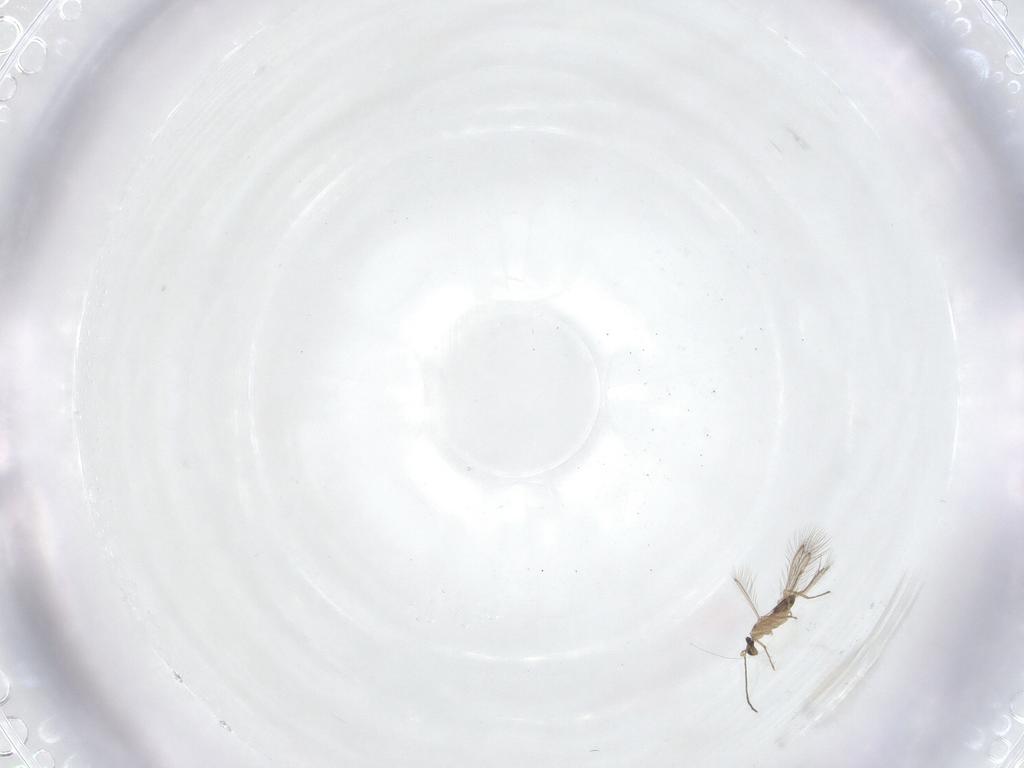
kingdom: Animalia
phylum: Arthropoda
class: Insecta
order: Hymenoptera
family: Mymaridae
